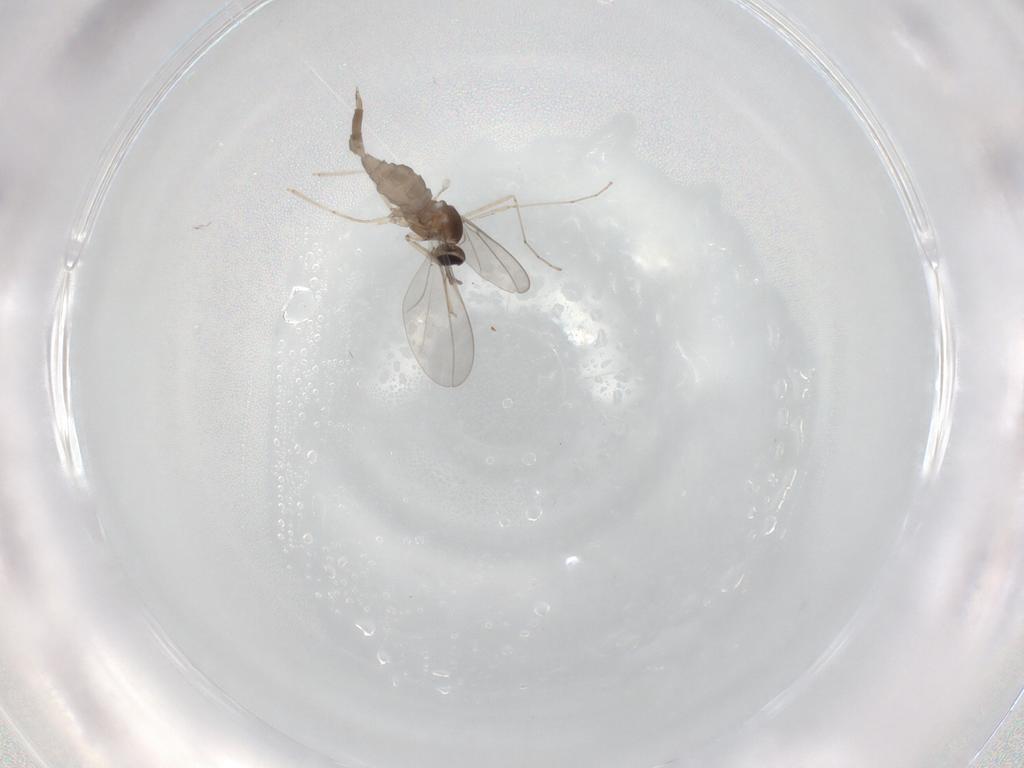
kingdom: Animalia
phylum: Arthropoda
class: Insecta
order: Diptera
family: Cecidomyiidae
